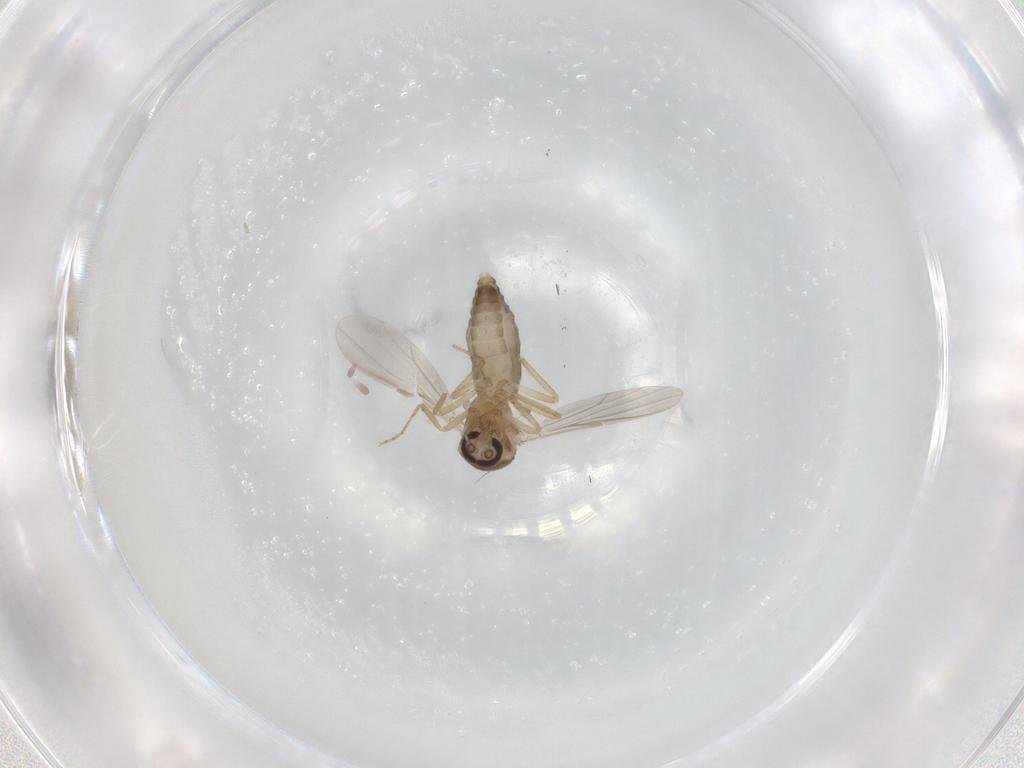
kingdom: Animalia
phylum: Arthropoda
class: Insecta
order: Diptera
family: Ceratopogonidae
